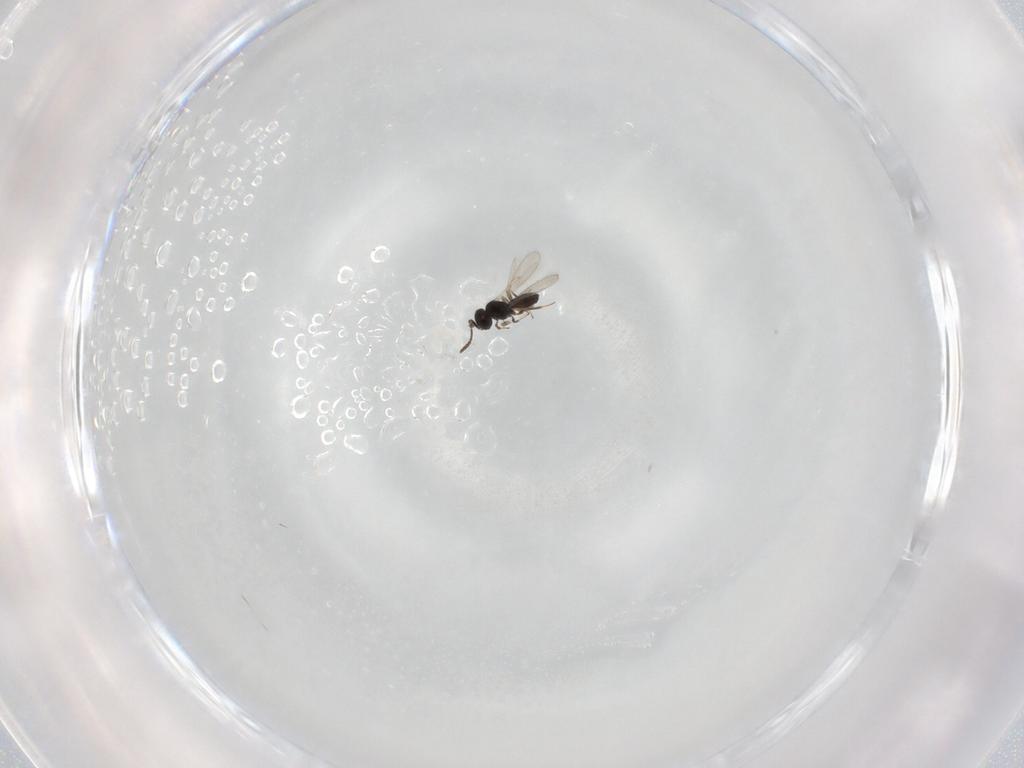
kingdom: Animalia
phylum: Arthropoda
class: Insecta
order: Hymenoptera
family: Scelionidae
